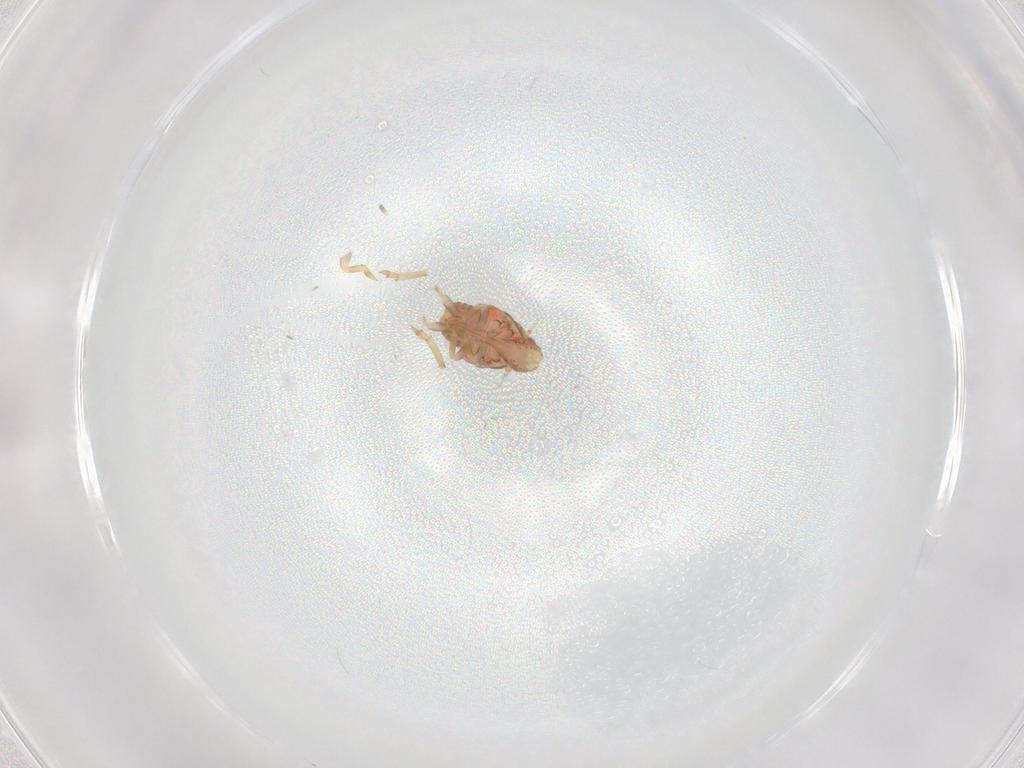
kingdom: Animalia
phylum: Arthropoda
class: Insecta
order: Hemiptera
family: Flatidae
